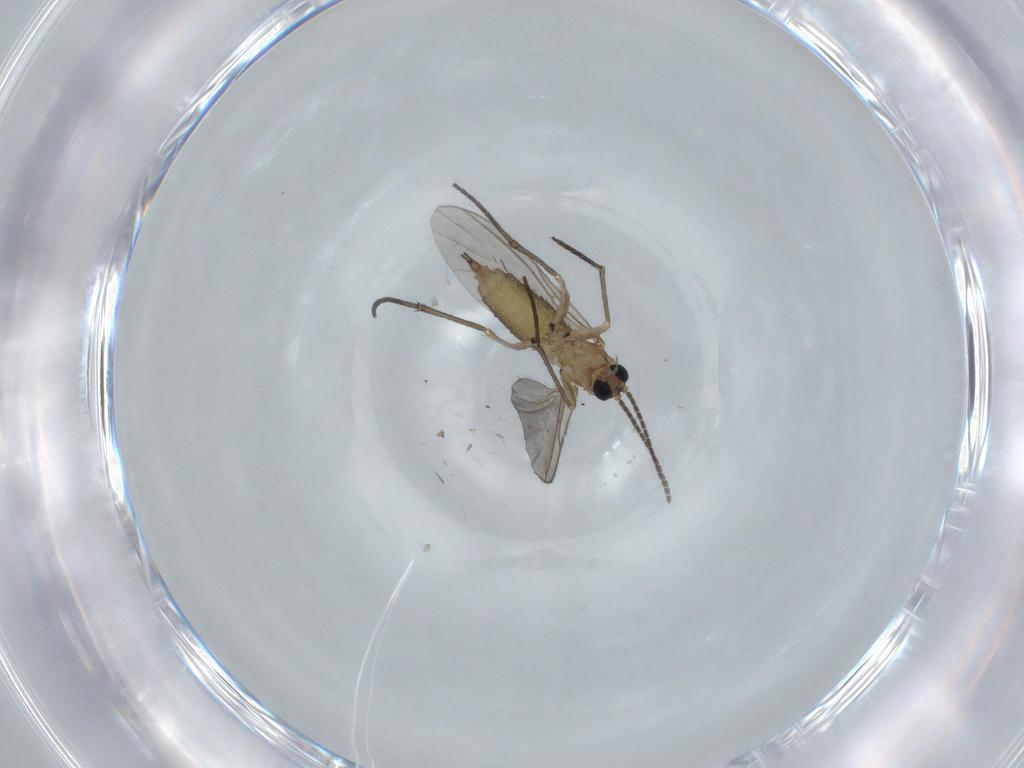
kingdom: Animalia
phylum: Arthropoda
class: Insecta
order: Diptera
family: Sciaridae
